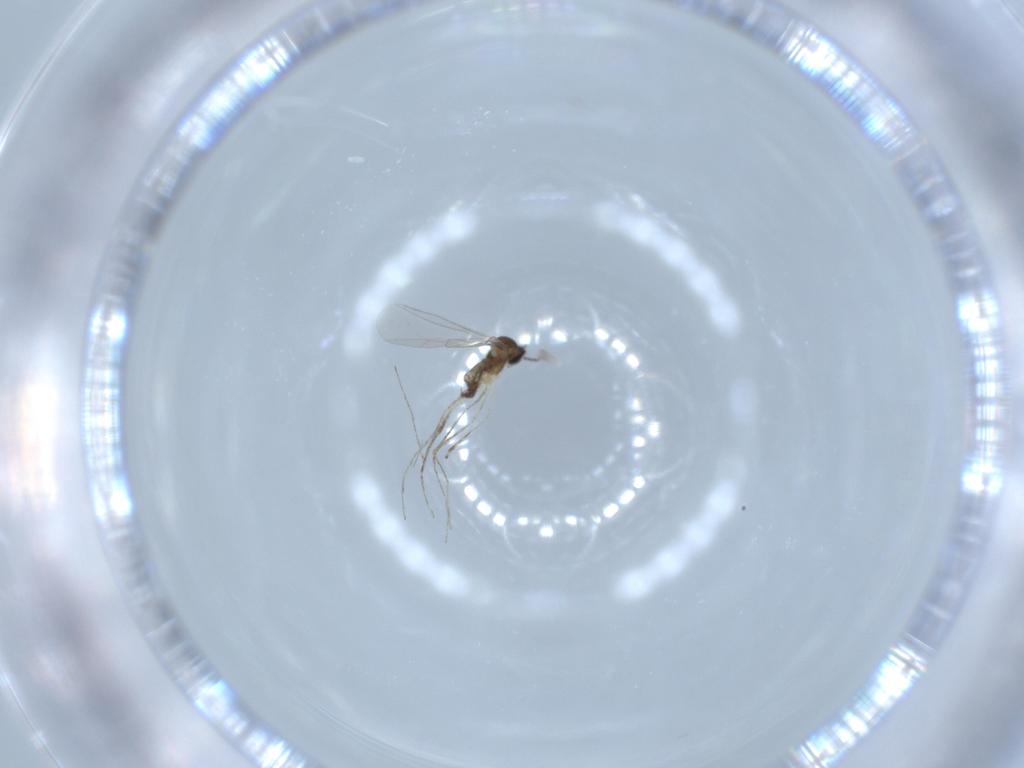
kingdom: Animalia
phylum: Arthropoda
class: Insecta
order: Diptera
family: Cecidomyiidae
